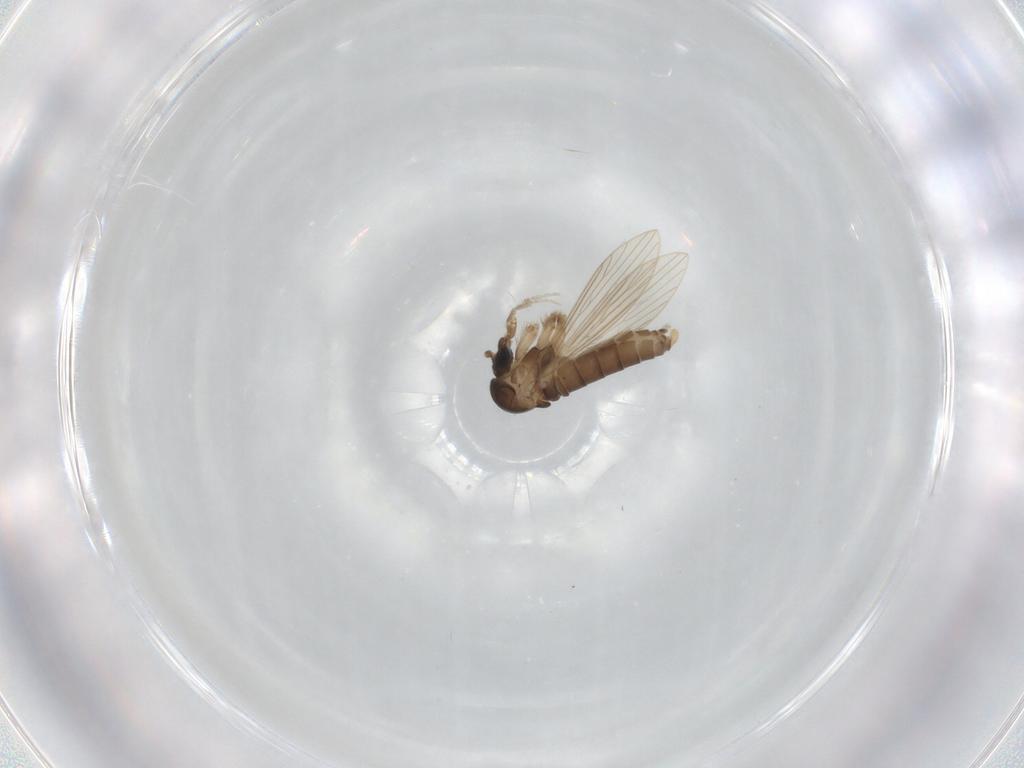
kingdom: Animalia
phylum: Arthropoda
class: Insecta
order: Diptera
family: Psychodidae
